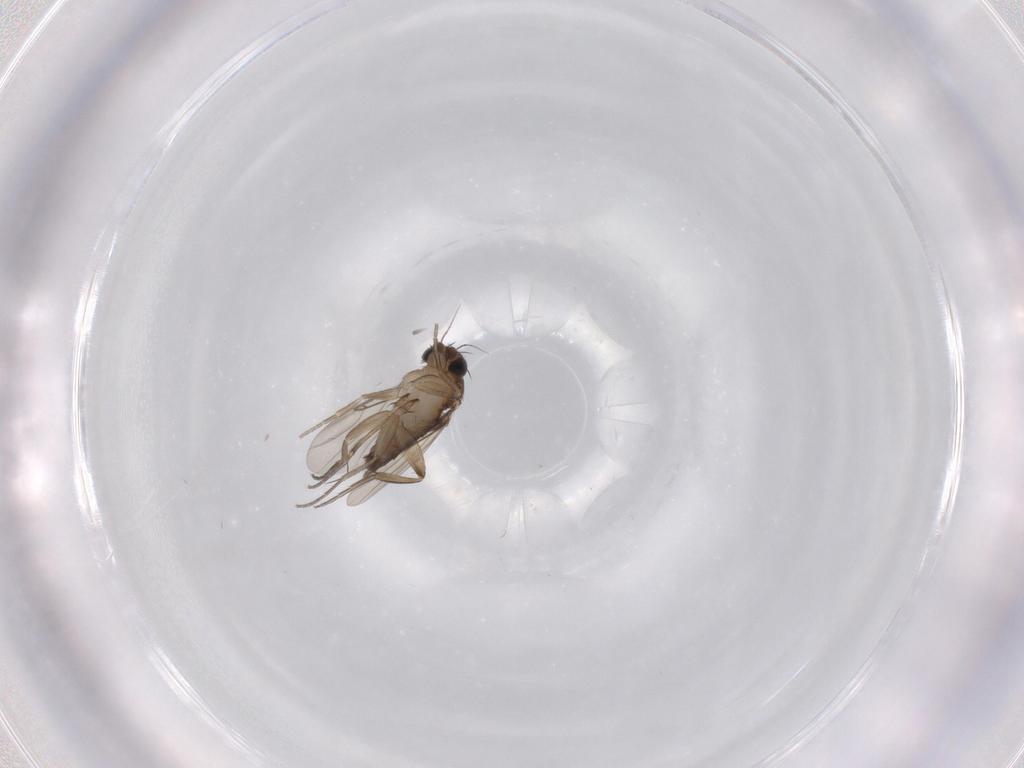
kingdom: Animalia
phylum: Arthropoda
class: Insecta
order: Diptera
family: Phoridae
